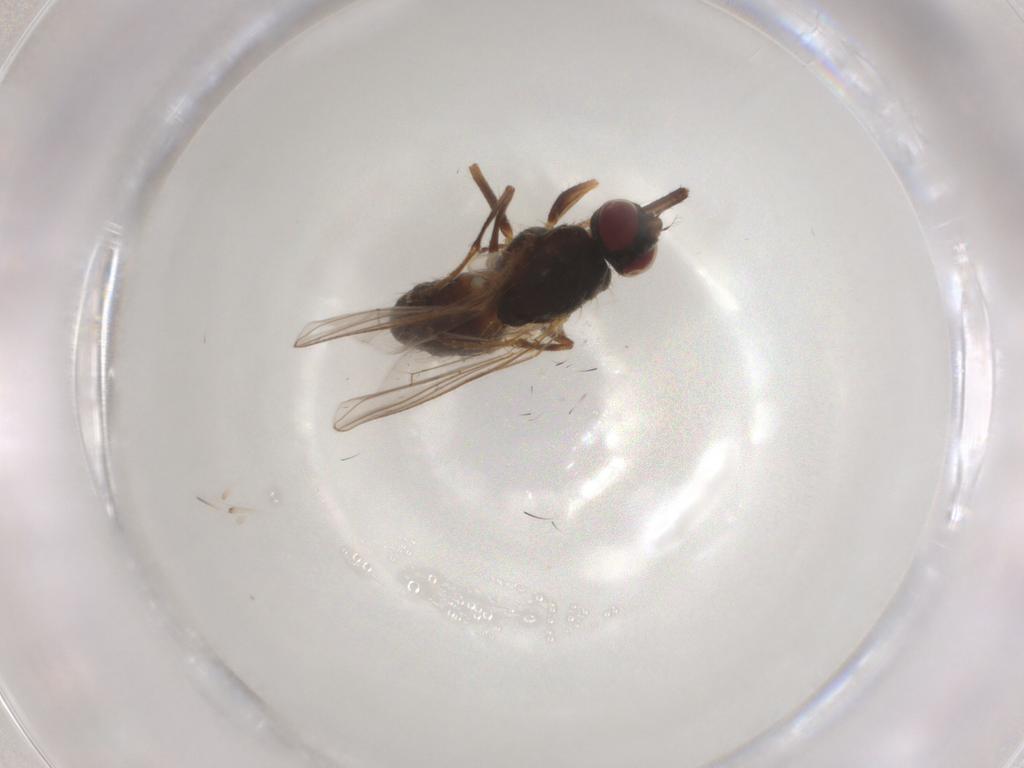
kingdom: Animalia
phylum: Arthropoda
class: Insecta
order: Diptera
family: Muscidae
